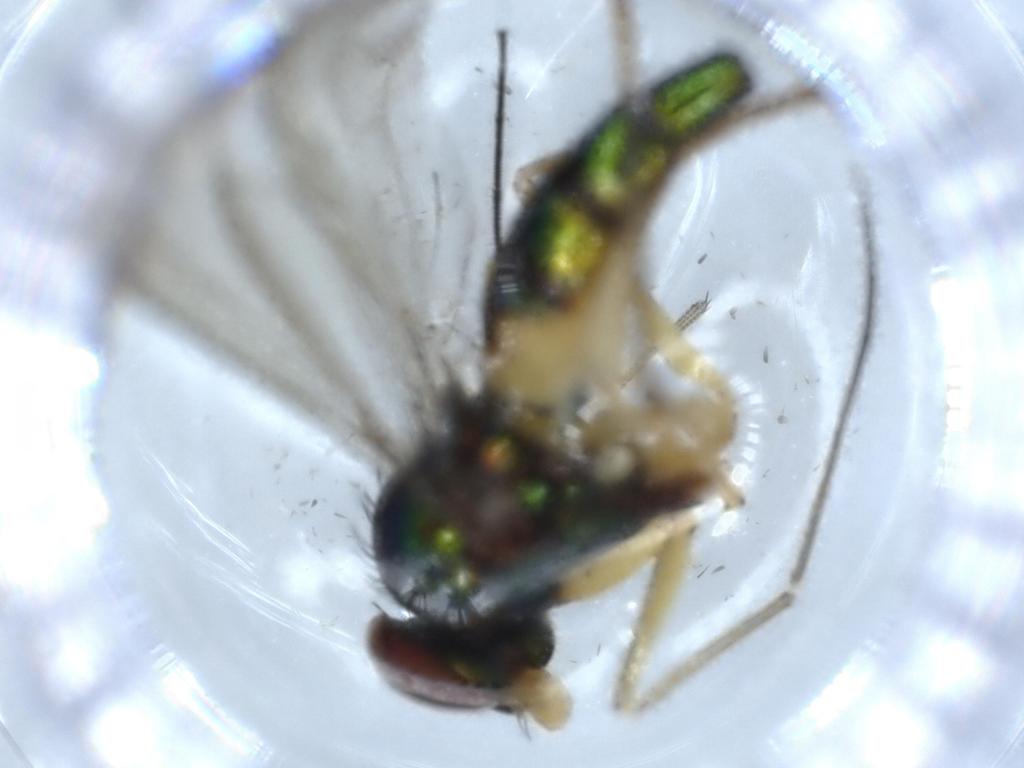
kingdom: Animalia
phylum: Arthropoda
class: Insecta
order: Diptera
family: Phoridae
